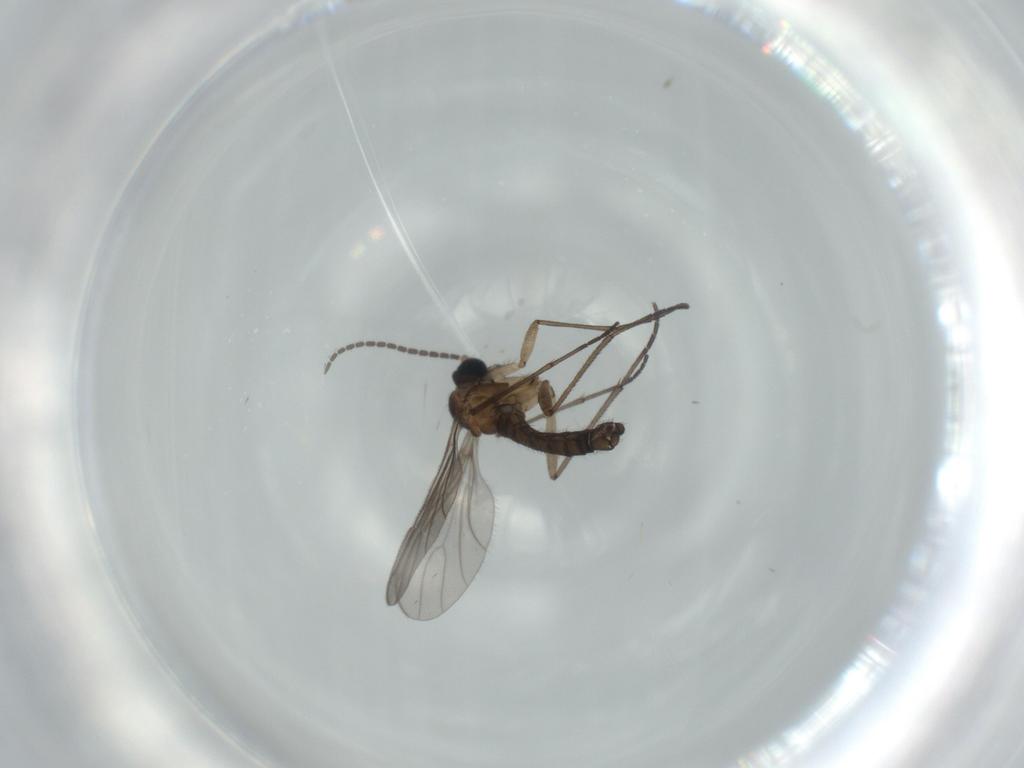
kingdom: Animalia
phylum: Arthropoda
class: Insecta
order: Diptera
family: Sciaridae
